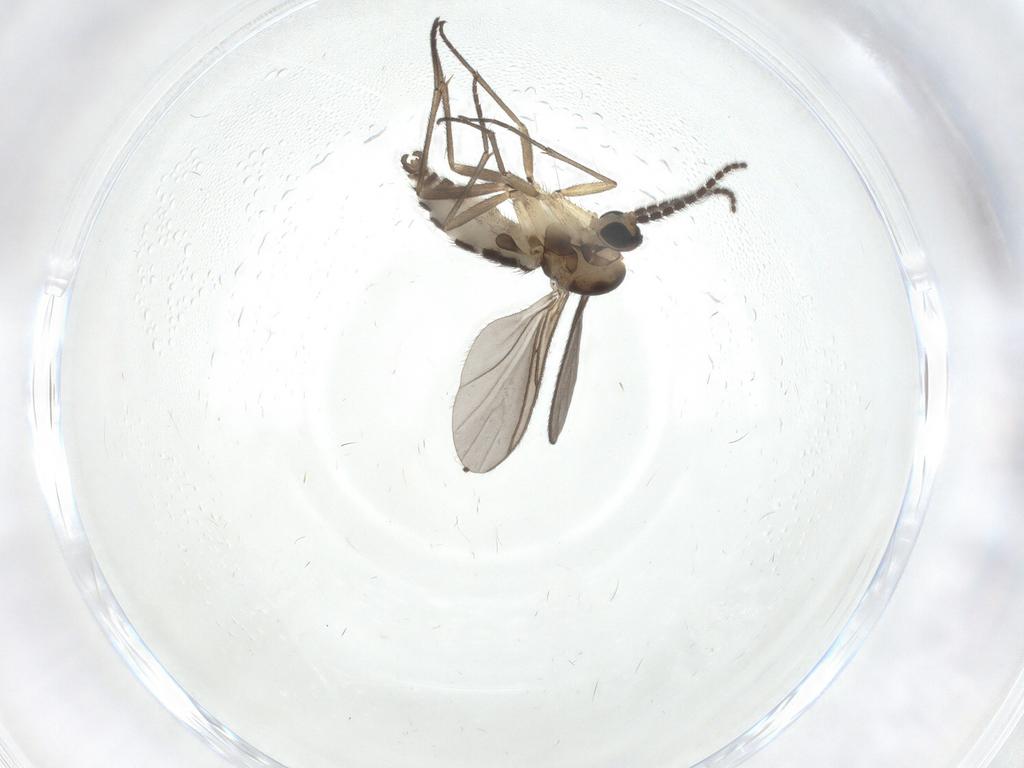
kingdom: Animalia
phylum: Arthropoda
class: Insecta
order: Diptera
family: Sciaridae
